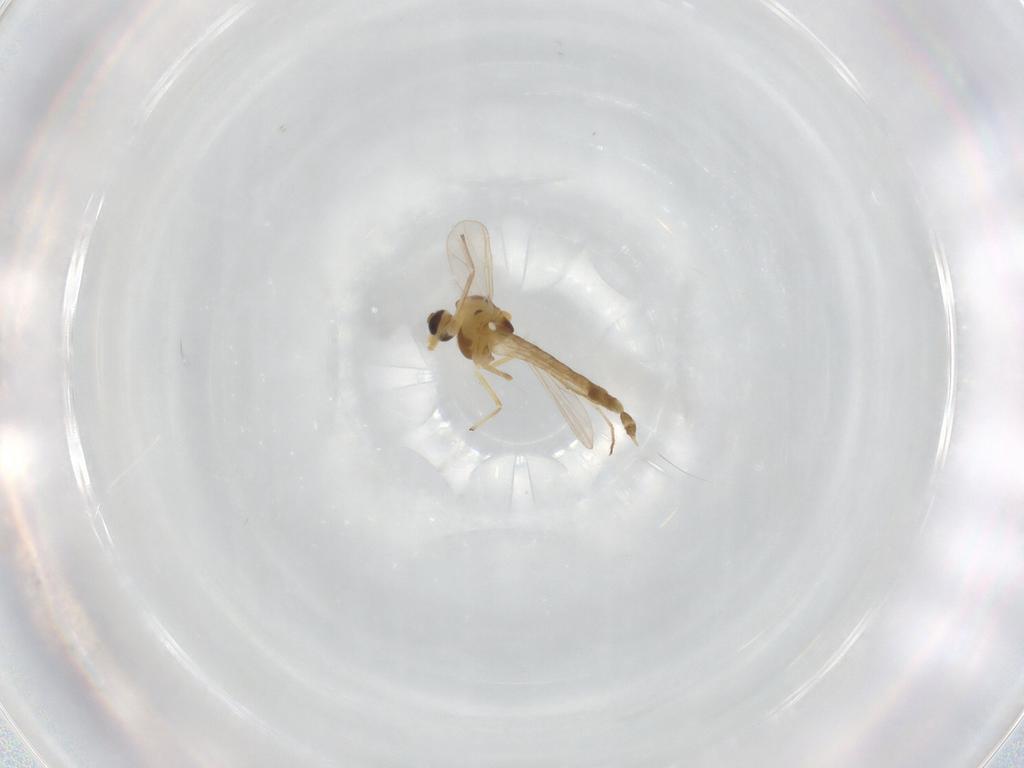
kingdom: Animalia
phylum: Arthropoda
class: Insecta
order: Diptera
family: Chironomidae
